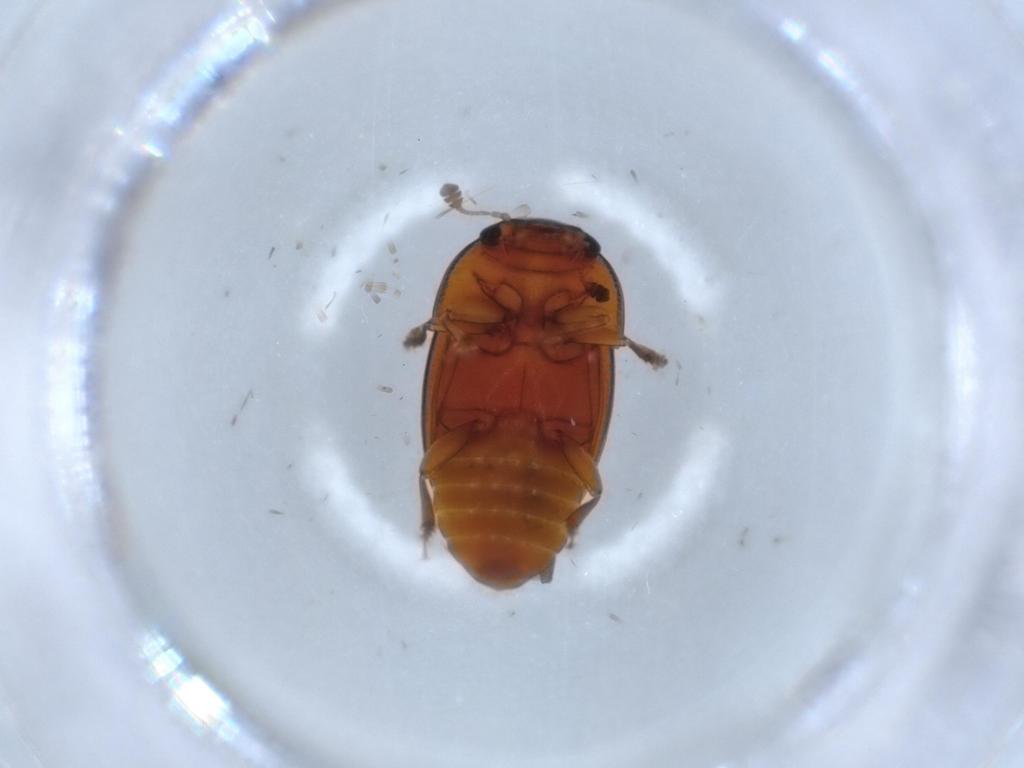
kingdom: Animalia
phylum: Arthropoda
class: Insecta
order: Coleoptera
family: Nitidulidae
